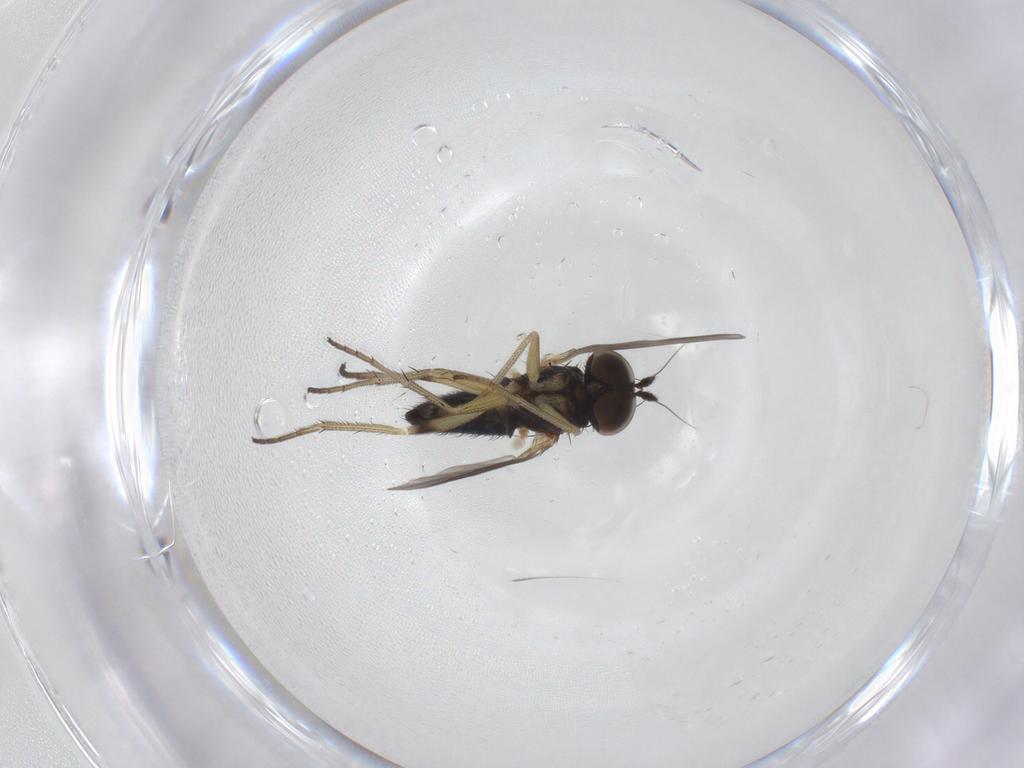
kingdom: Animalia
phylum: Arthropoda
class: Insecta
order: Diptera
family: Dolichopodidae
